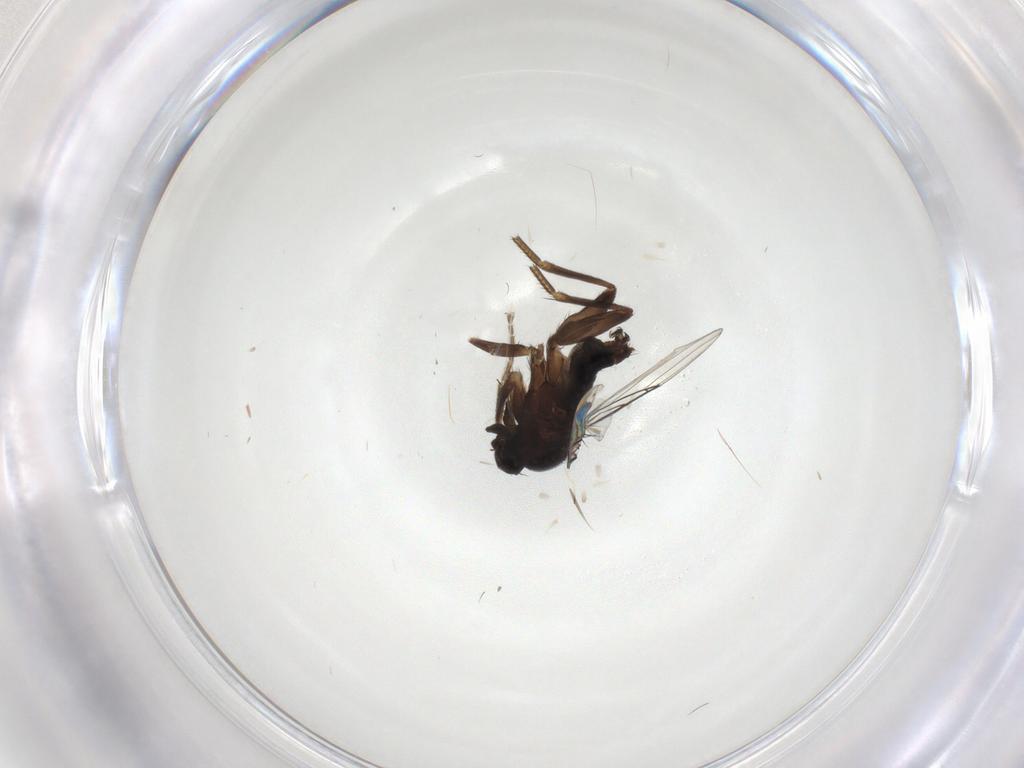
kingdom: Animalia
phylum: Arthropoda
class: Insecta
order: Diptera
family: Phoridae
